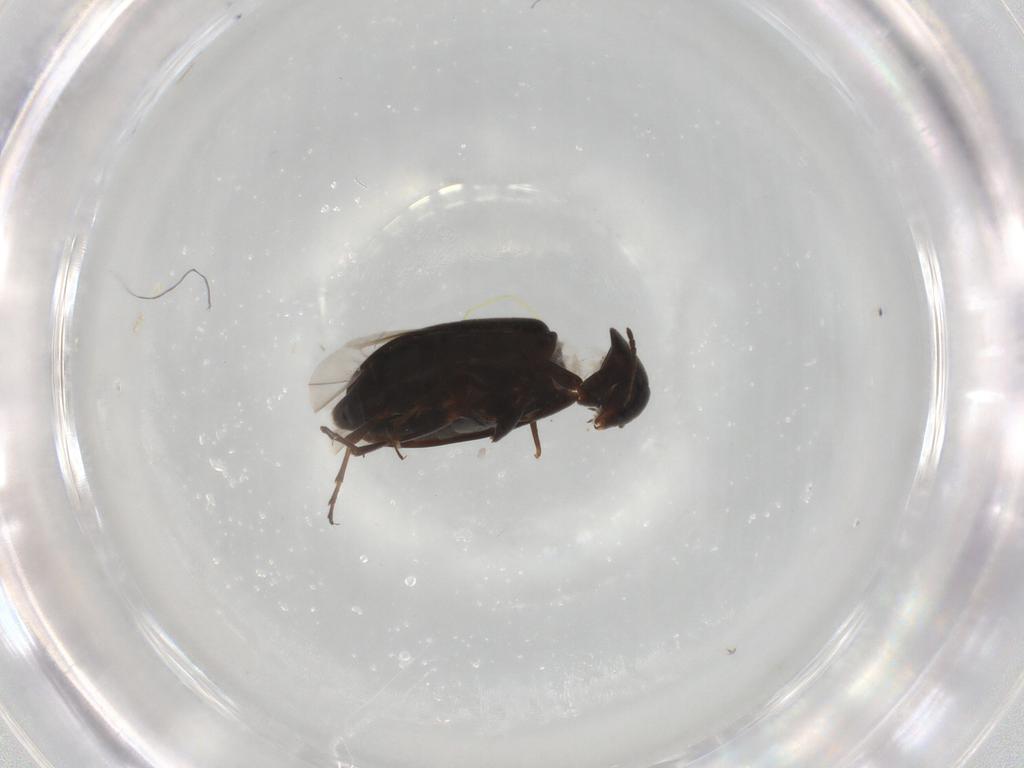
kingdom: Animalia
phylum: Arthropoda
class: Insecta
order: Coleoptera
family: Scraptiidae
